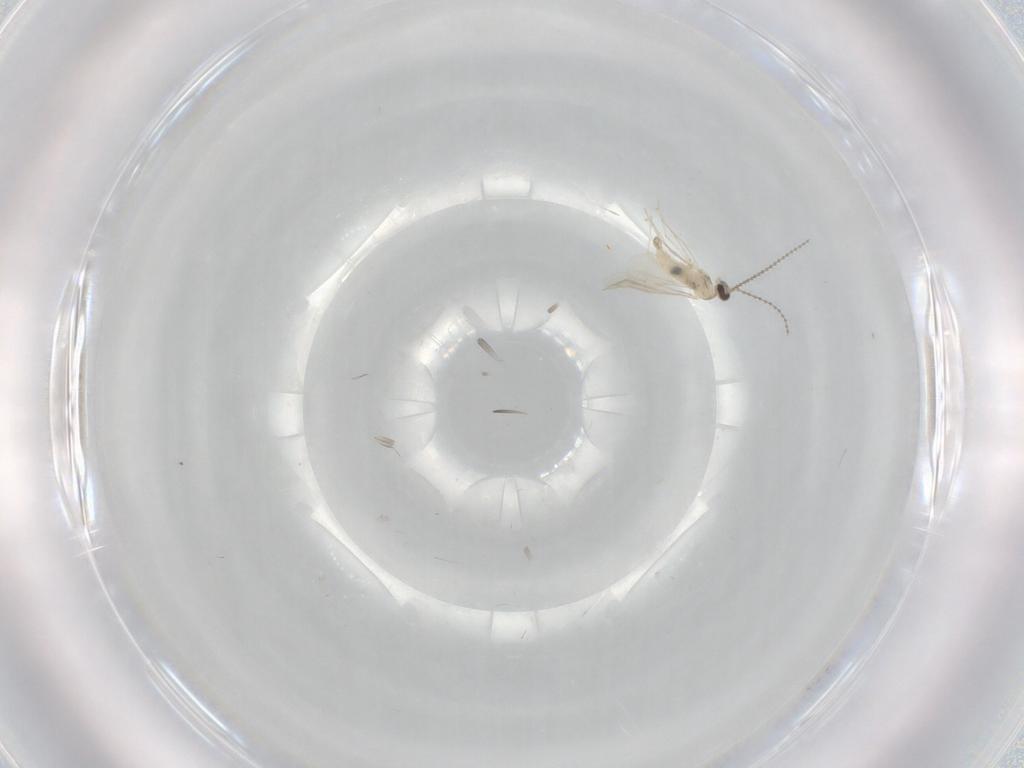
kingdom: Animalia
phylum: Arthropoda
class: Insecta
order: Diptera
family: Cecidomyiidae
